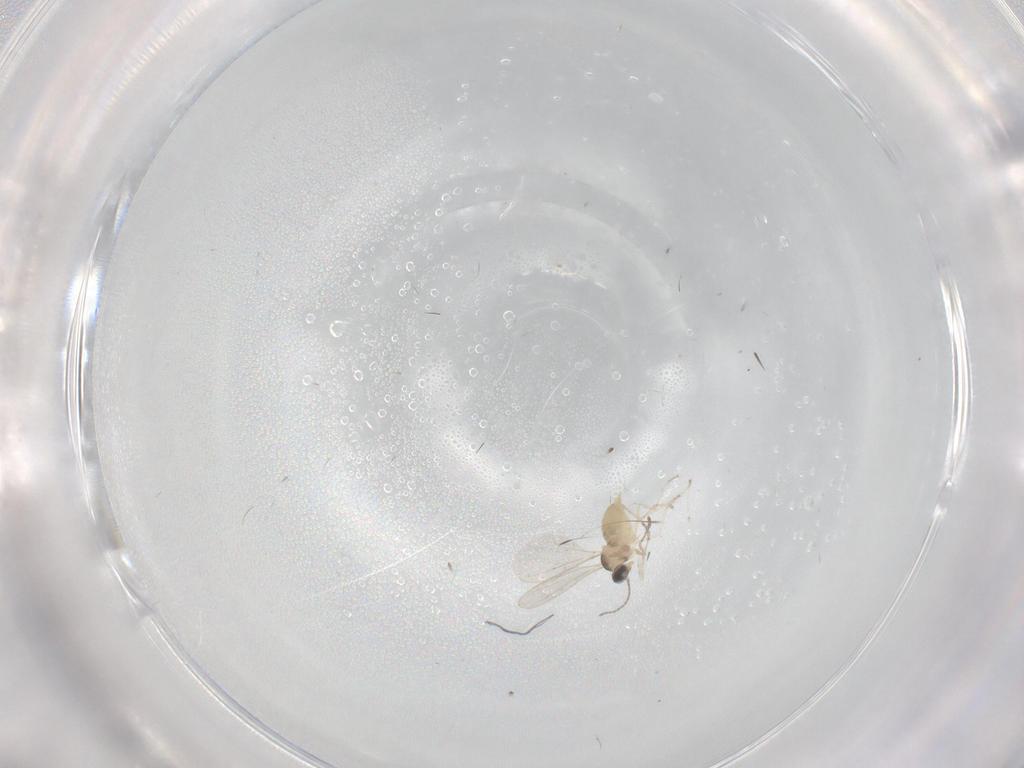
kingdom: Animalia
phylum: Arthropoda
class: Insecta
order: Diptera
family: Cecidomyiidae
